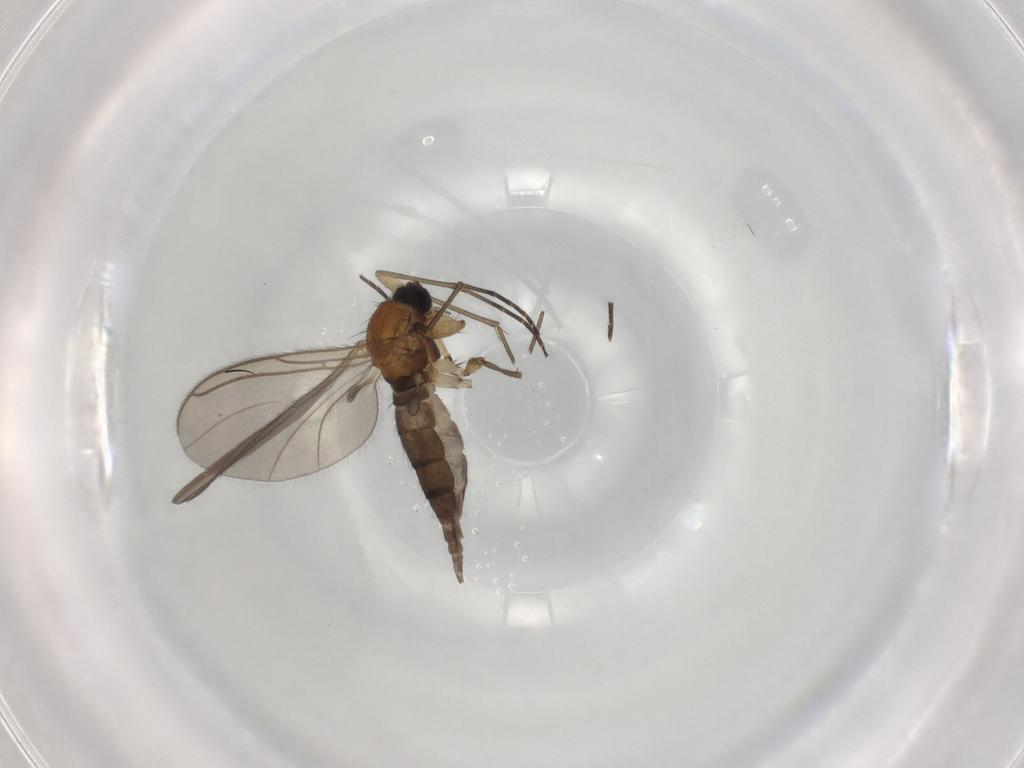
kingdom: Animalia
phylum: Arthropoda
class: Insecta
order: Diptera
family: Sciaridae
